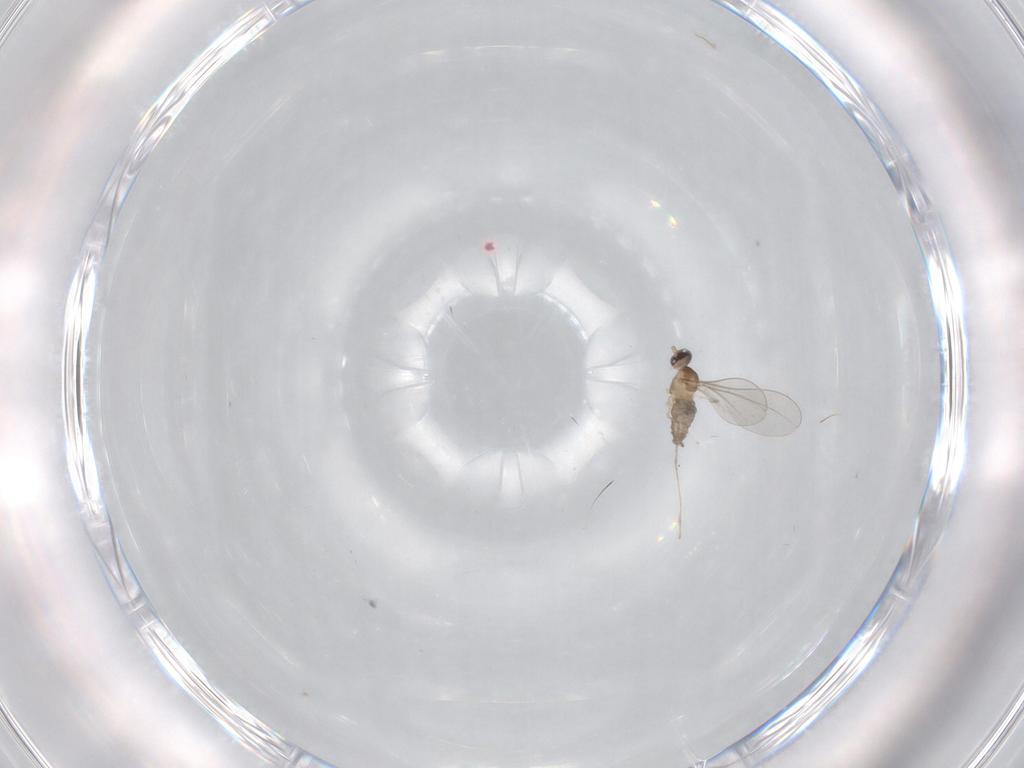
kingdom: Animalia
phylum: Arthropoda
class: Insecta
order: Diptera
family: Cecidomyiidae
